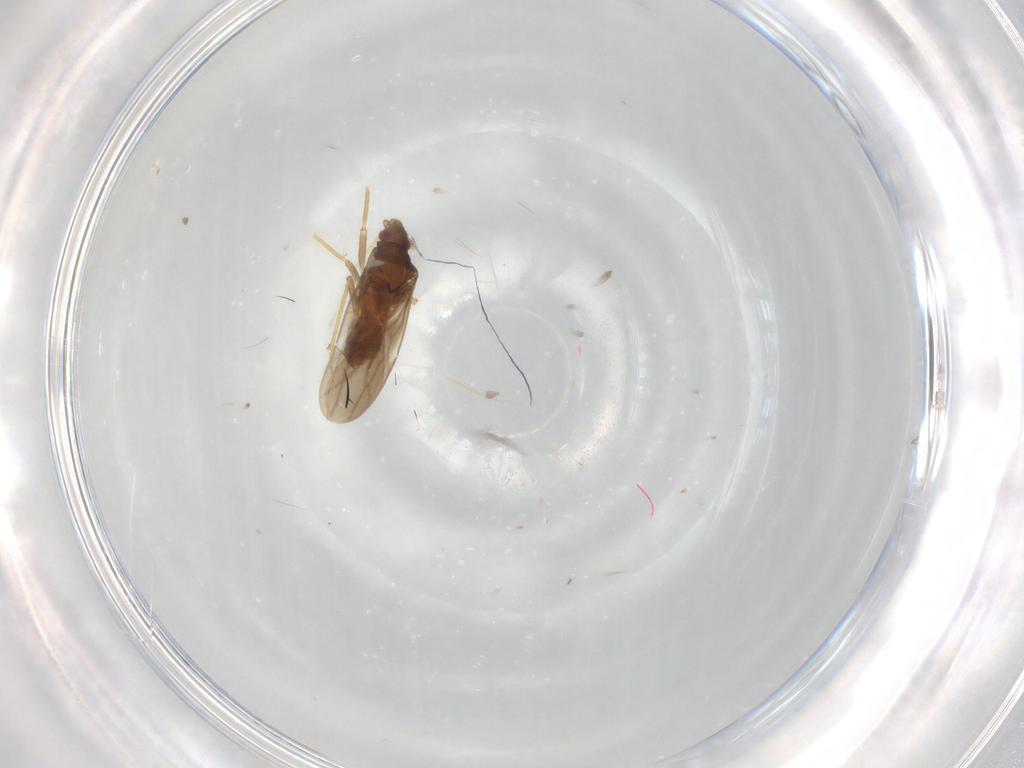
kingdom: Animalia
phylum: Arthropoda
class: Insecta
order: Hemiptera
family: Ceratocombidae
